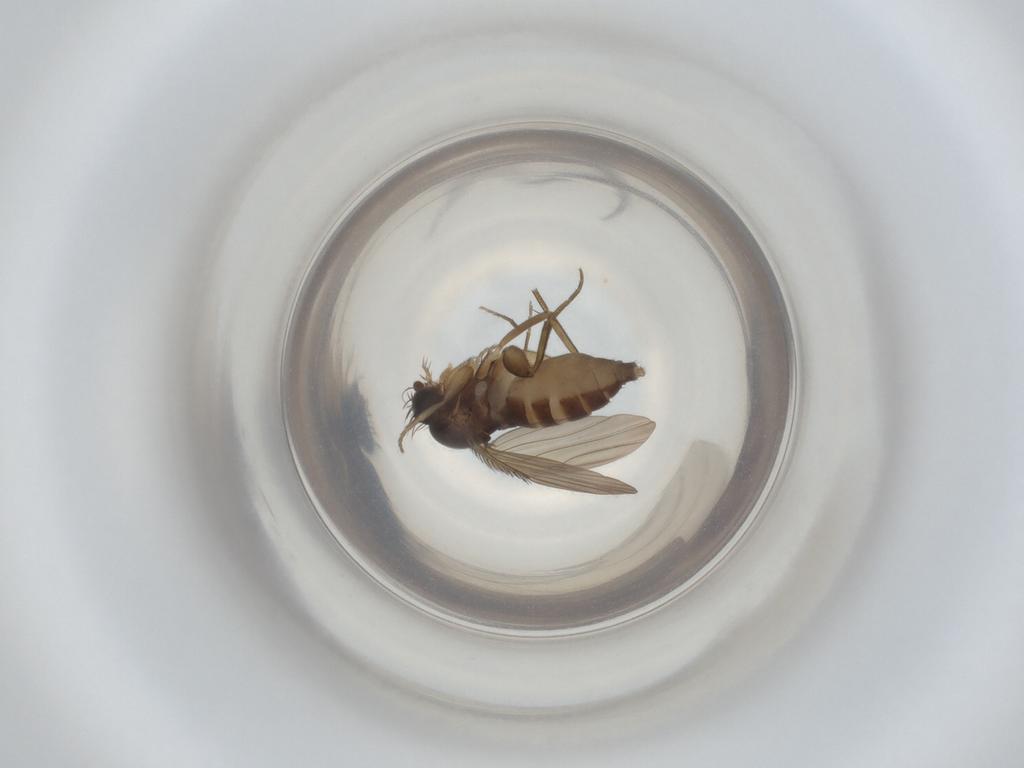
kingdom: Animalia
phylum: Arthropoda
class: Insecta
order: Diptera
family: Phoridae
